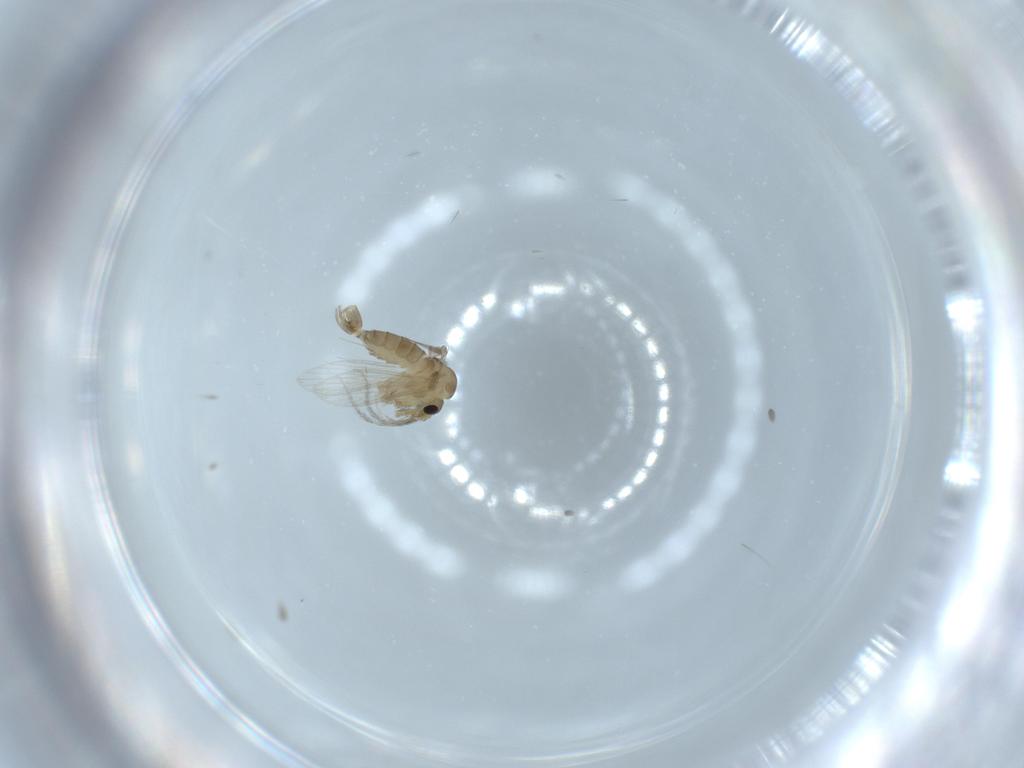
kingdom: Animalia
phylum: Arthropoda
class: Insecta
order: Diptera
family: Psychodidae
